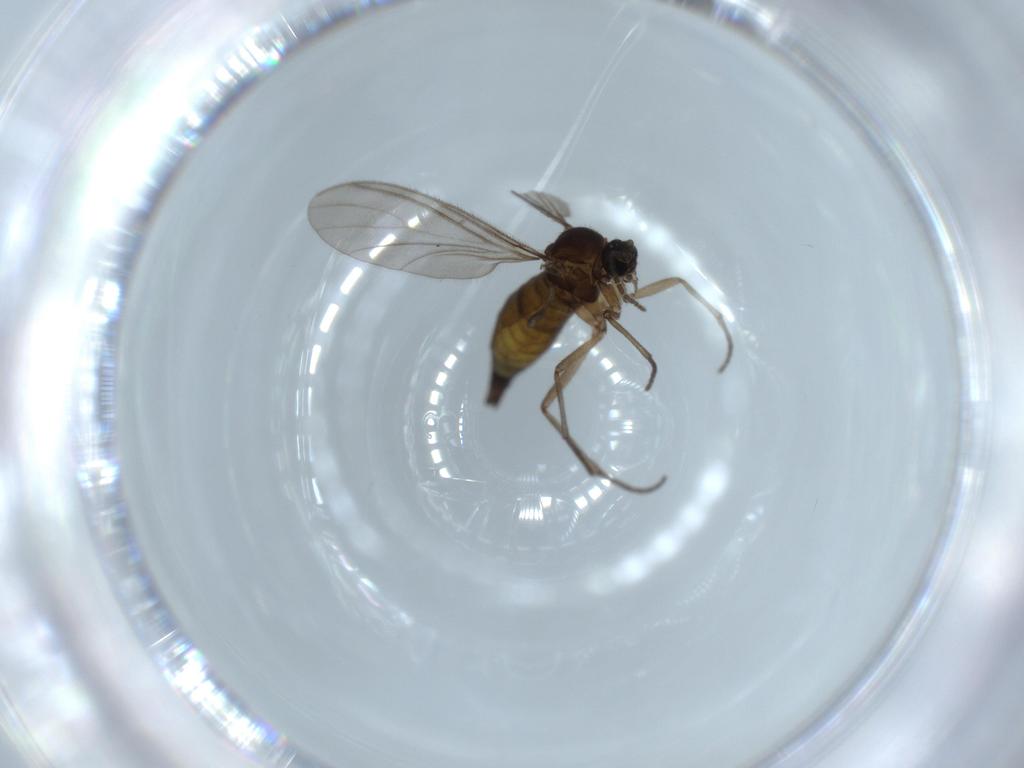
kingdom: Animalia
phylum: Arthropoda
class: Insecta
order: Diptera
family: Sciaridae
